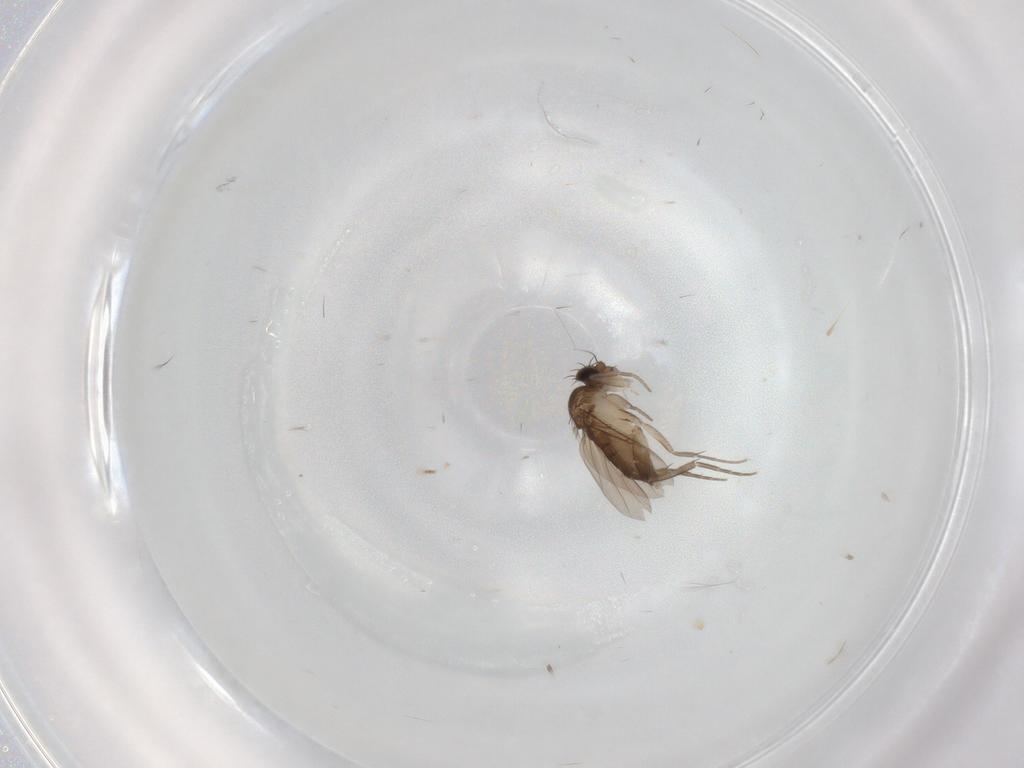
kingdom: Animalia
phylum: Arthropoda
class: Insecta
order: Diptera
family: Phoridae
